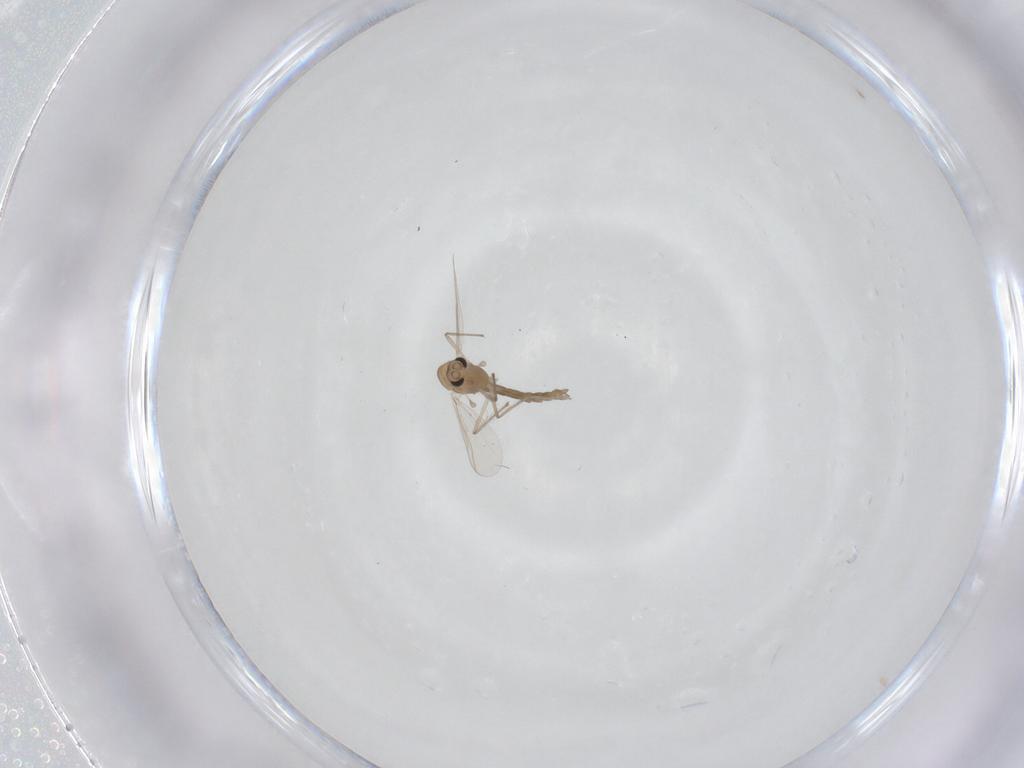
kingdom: Animalia
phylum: Arthropoda
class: Insecta
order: Diptera
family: Chironomidae
